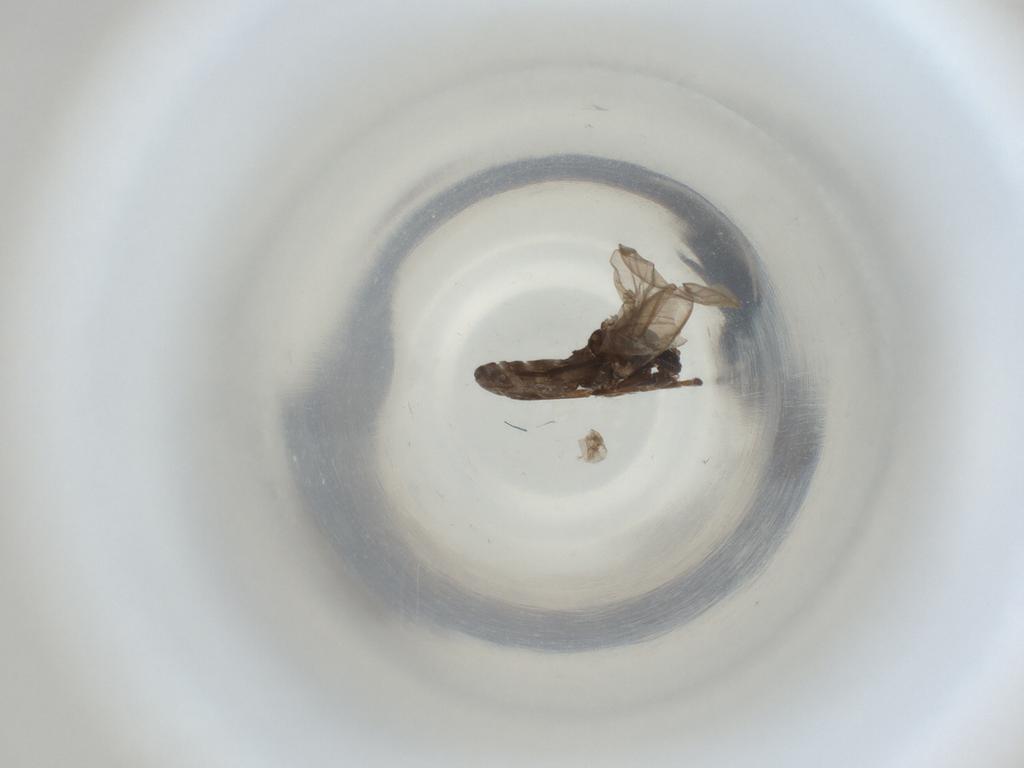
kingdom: Animalia
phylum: Arthropoda
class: Insecta
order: Diptera
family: Cecidomyiidae
